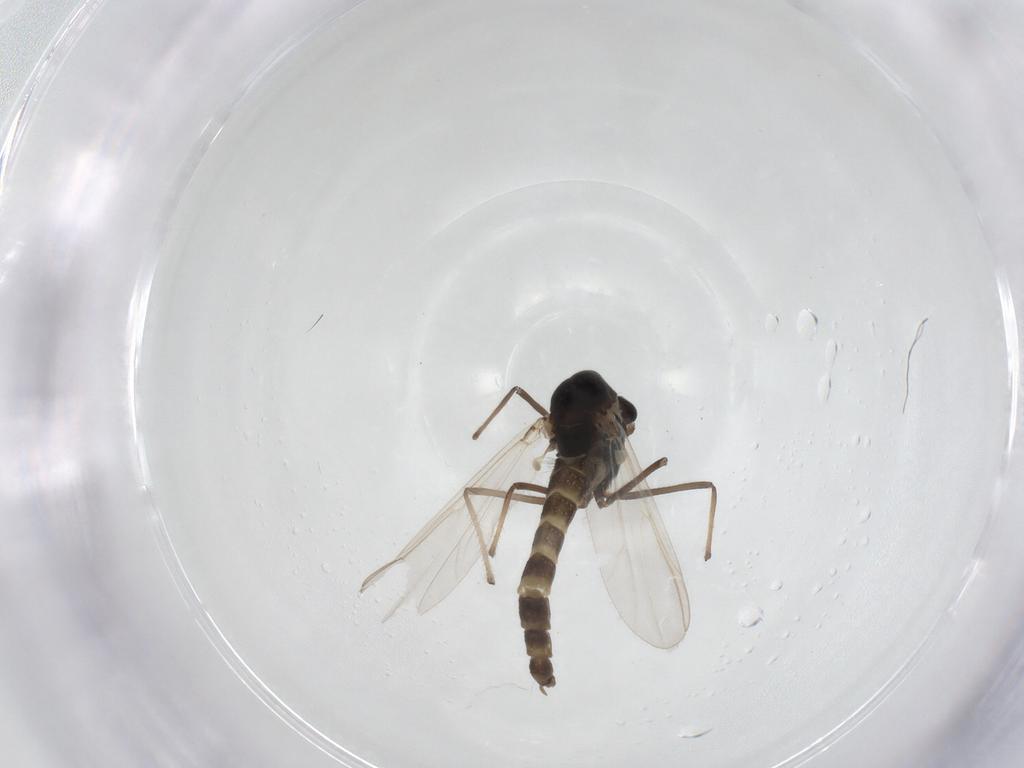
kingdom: Animalia
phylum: Arthropoda
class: Insecta
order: Diptera
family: Chironomidae
